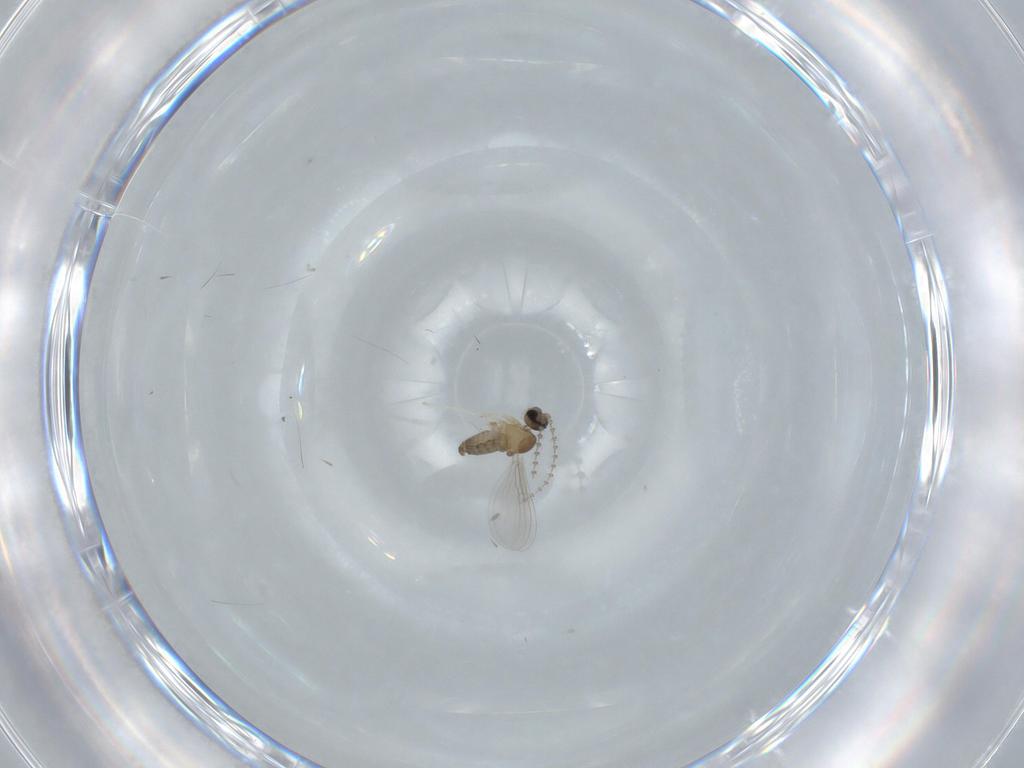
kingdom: Animalia
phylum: Arthropoda
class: Insecta
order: Diptera
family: Cecidomyiidae
